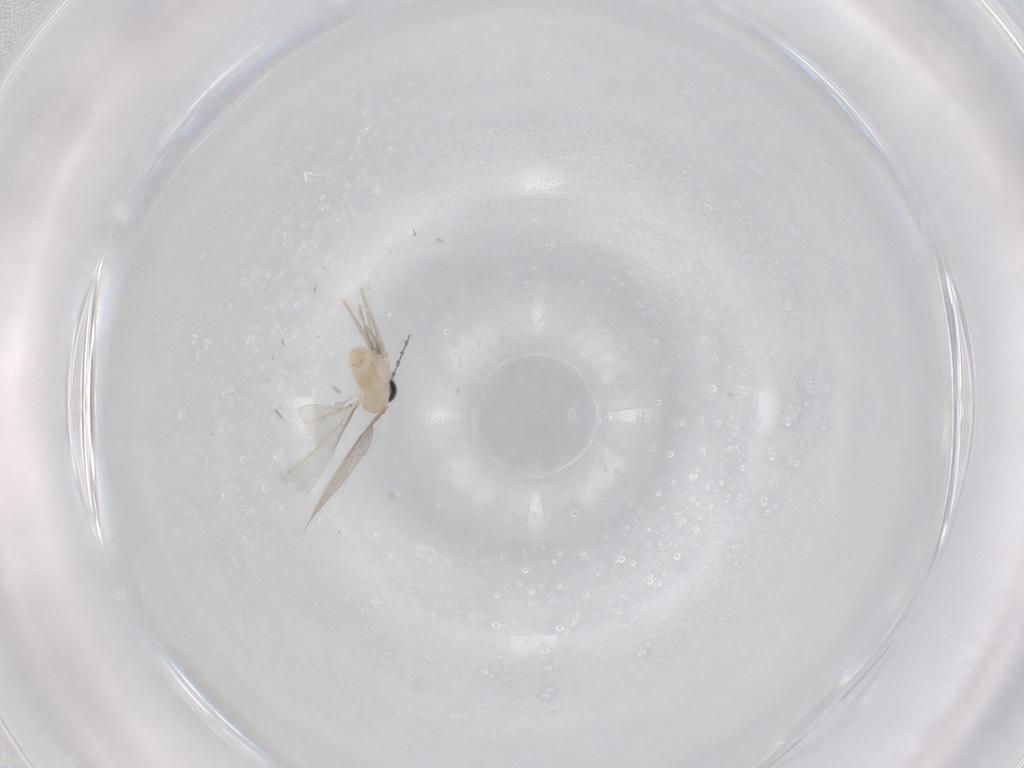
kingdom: Animalia
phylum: Arthropoda
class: Insecta
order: Diptera
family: Cecidomyiidae
